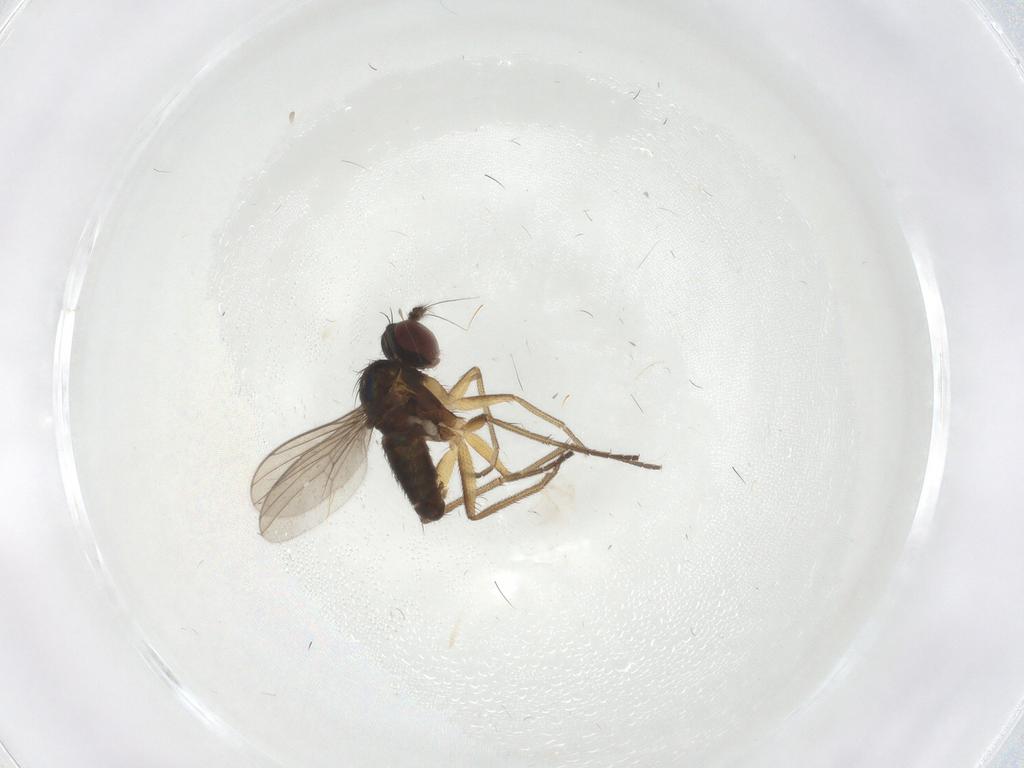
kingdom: Animalia
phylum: Arthropoda
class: Insecta
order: Diptera
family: Dolichopodidae
